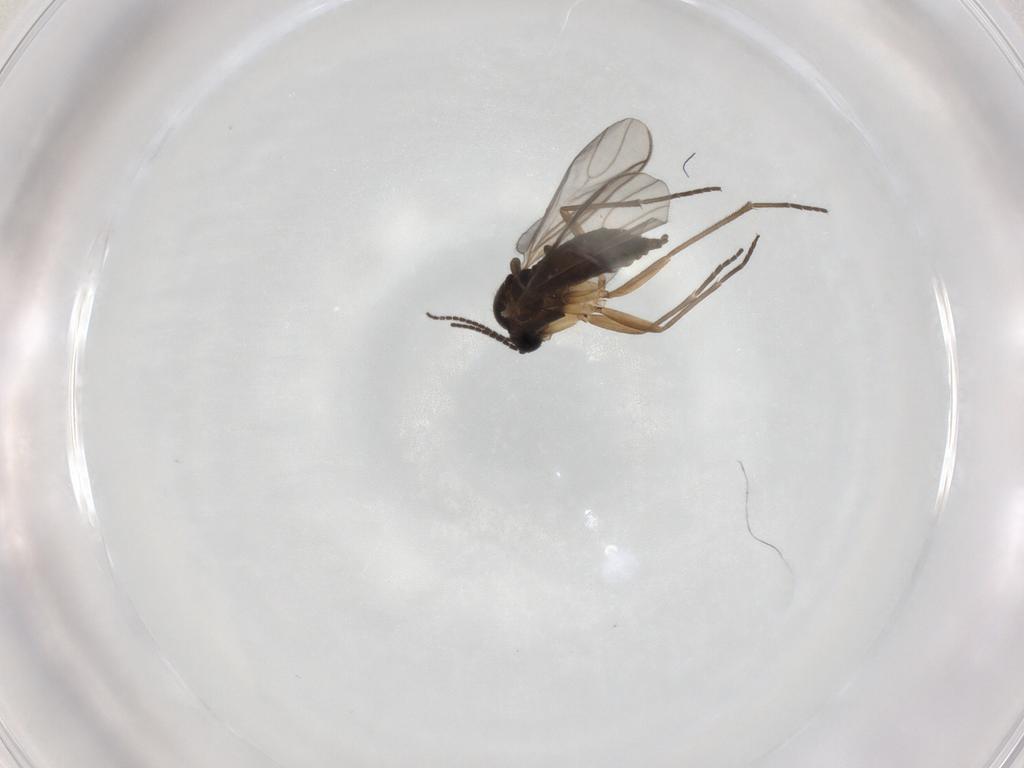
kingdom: Animalia
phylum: Arthropoda
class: Insecta
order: Diptera
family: Sciaridae
